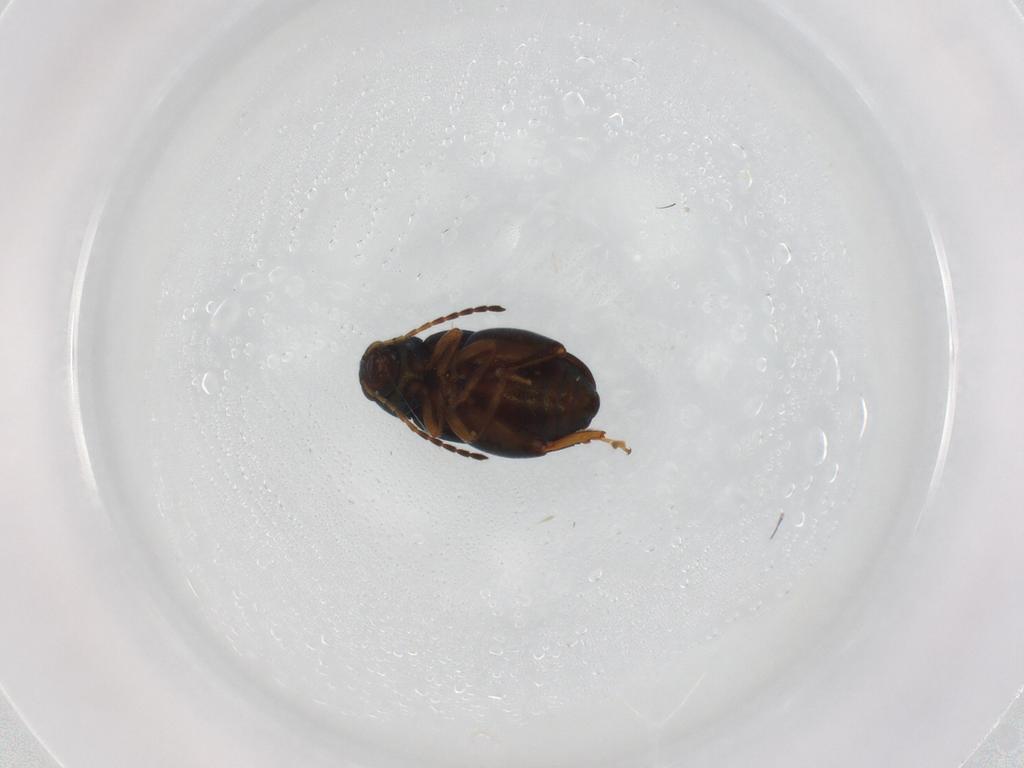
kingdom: Animalia
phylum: Arthropoda
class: Insecta
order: Coleoptera
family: Chrysomelidae
